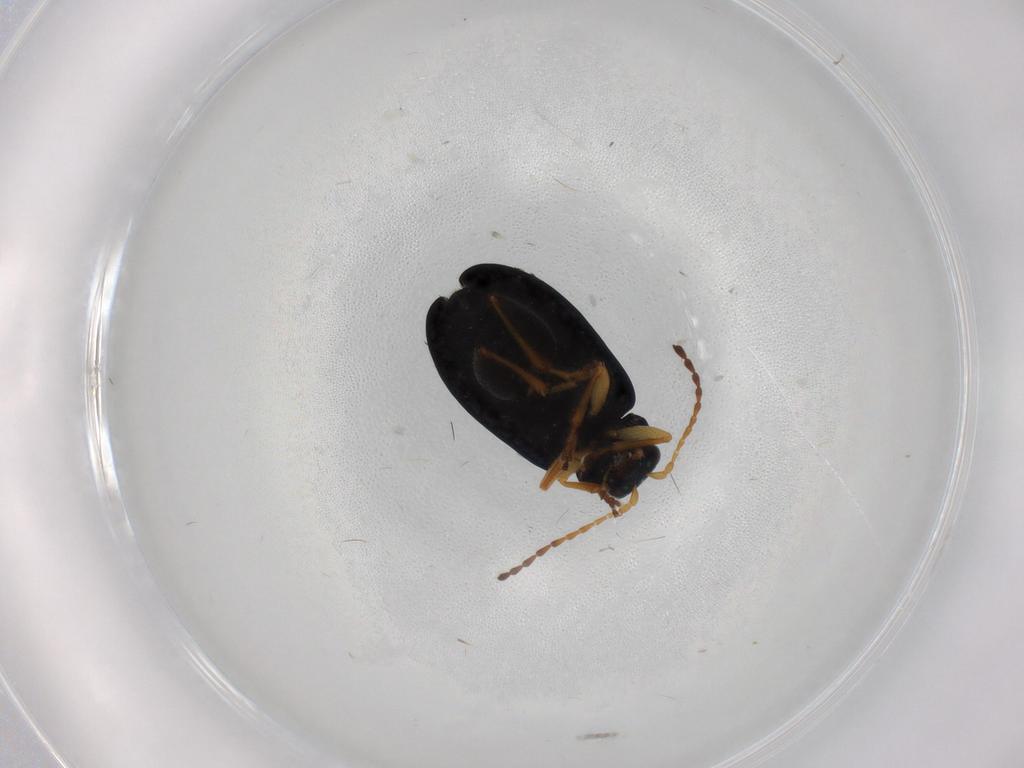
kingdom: Animalia
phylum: Arthropoda
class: Insecta
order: Coleoptera
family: Chrysomelidae
